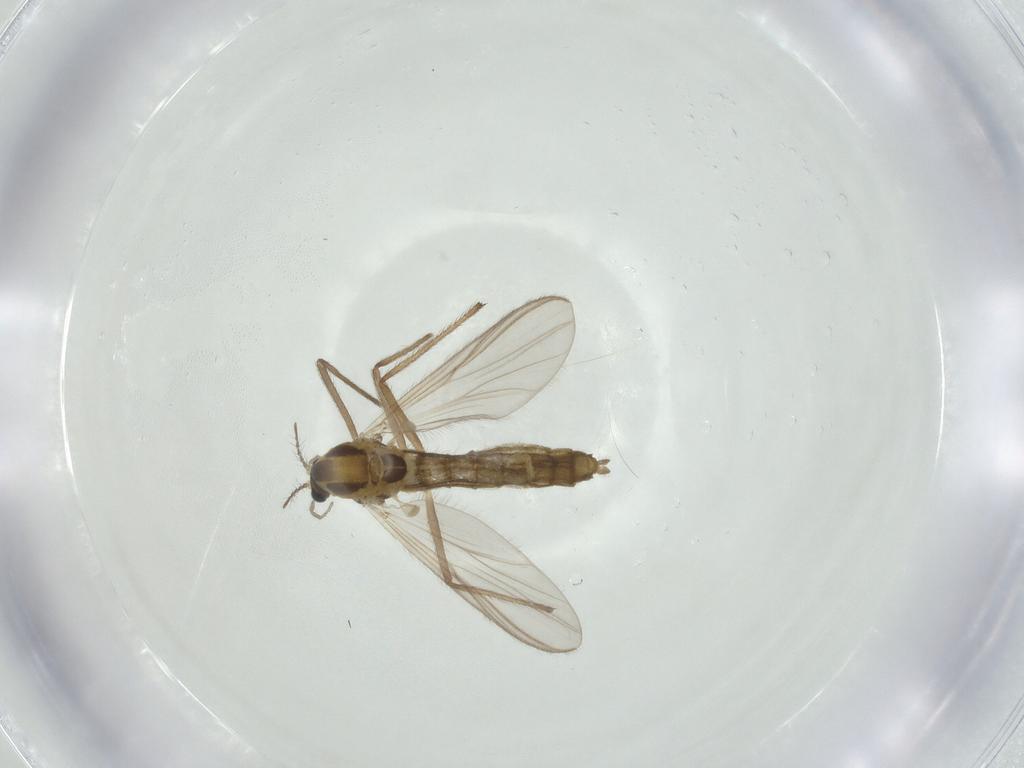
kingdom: Animalia
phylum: Arthropoda
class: Insecta
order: Diptera
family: Chironomidae
